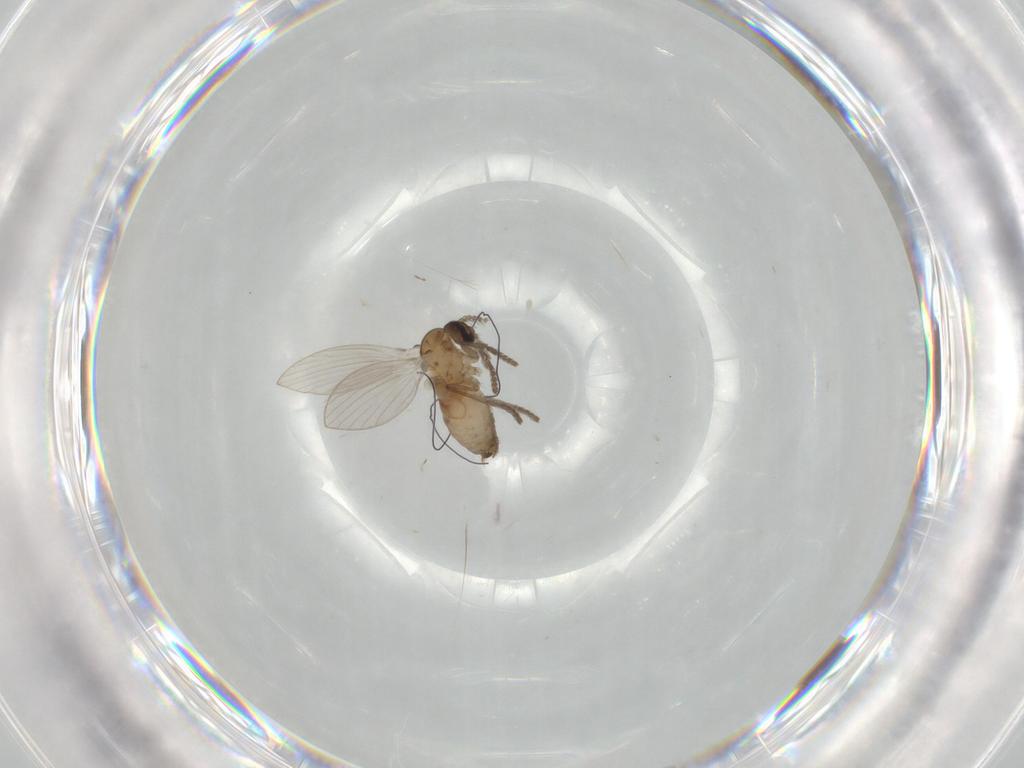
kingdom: Animalia
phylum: Arthropoda
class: Insecta
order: Diptera
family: Psychodidae
